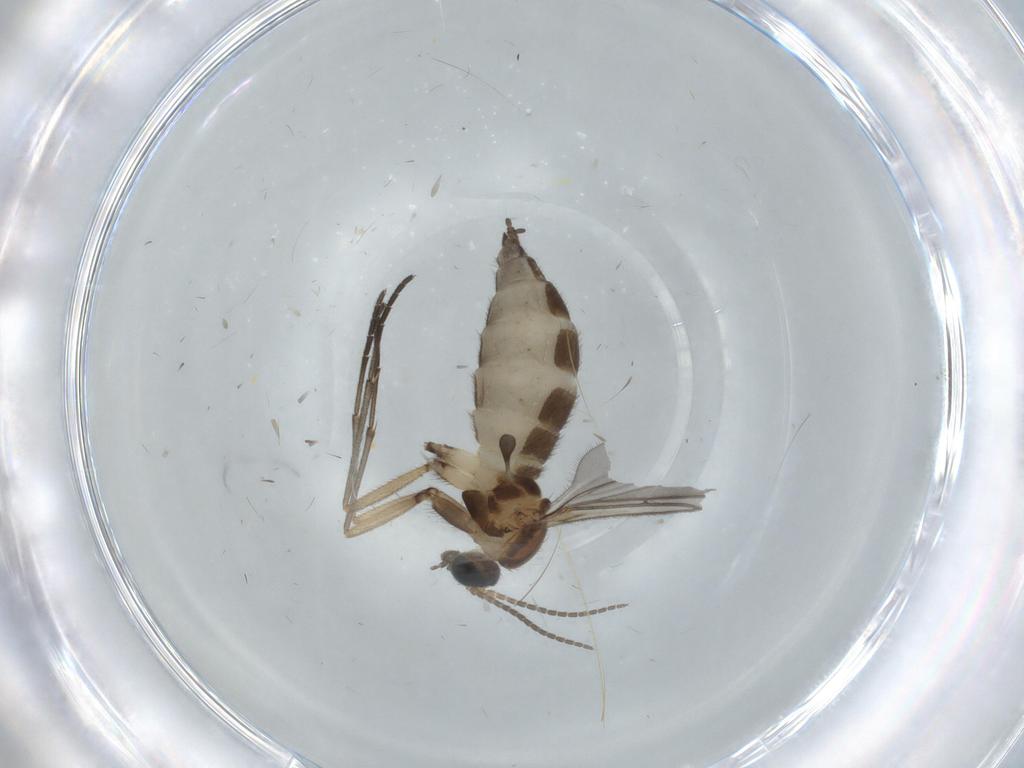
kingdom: Animalia
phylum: Arthropoda
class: Insecta
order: Diptera
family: Sciaridae
